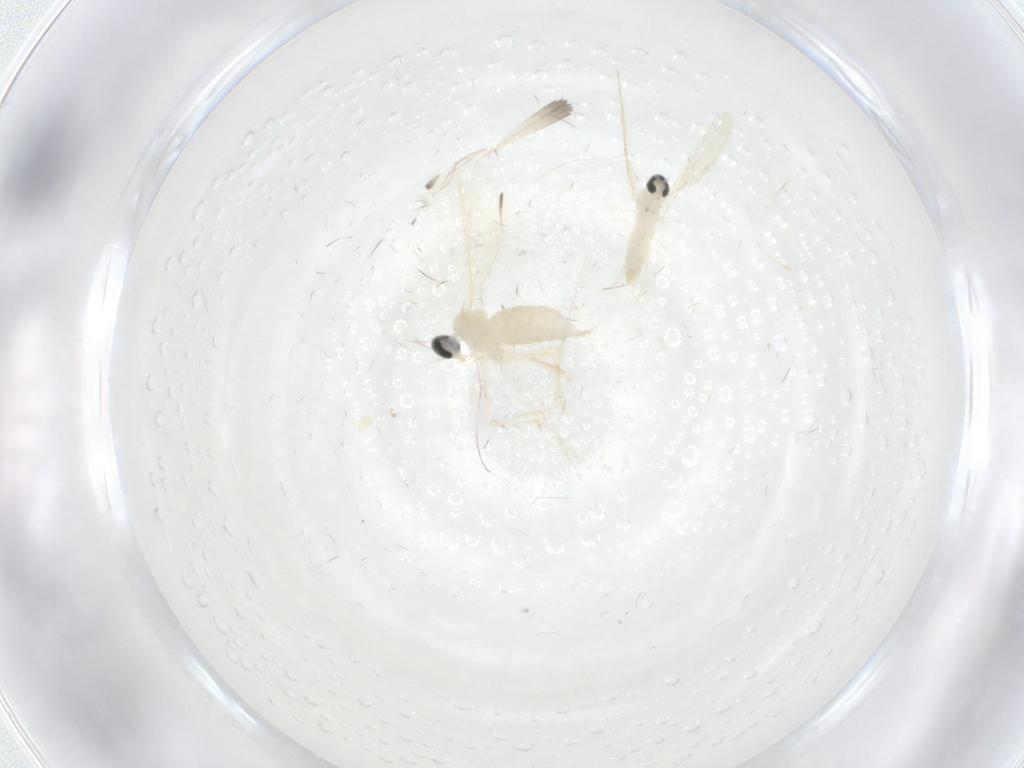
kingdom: Animalia
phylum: Arthropoda
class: Insecta
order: Diptera
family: Cecidomyiidae
